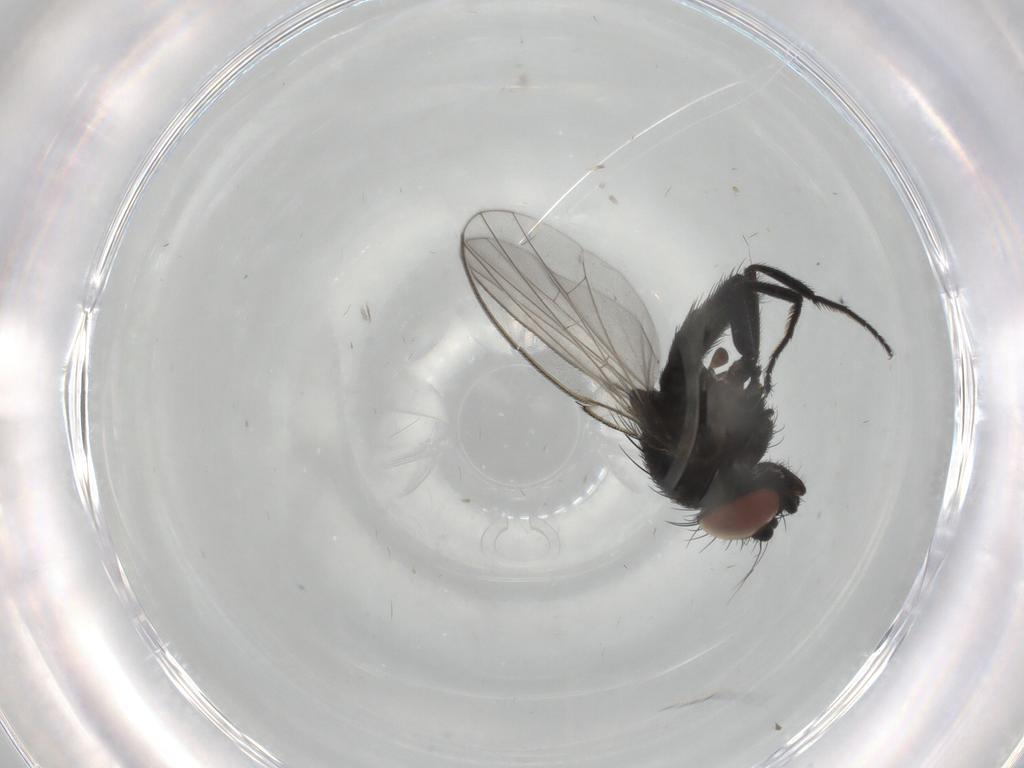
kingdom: Animalia
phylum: Arthropoda
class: Insecta
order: Diptera
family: Milichiidae
